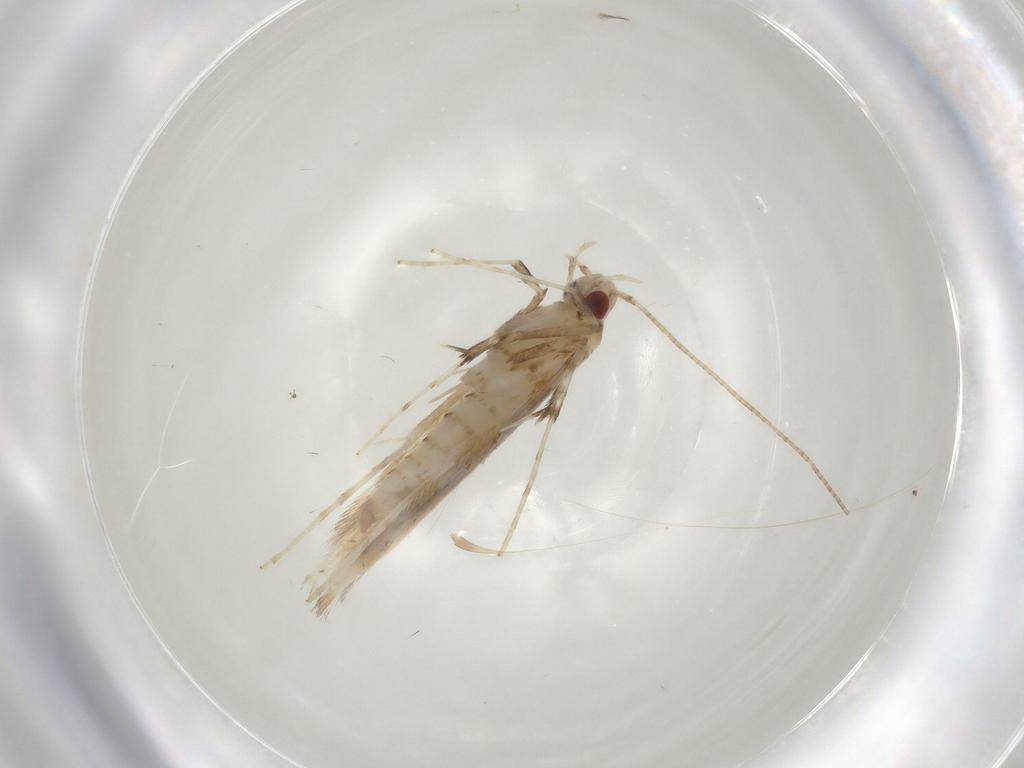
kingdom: Animalia
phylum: Arthropoda
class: Insecta
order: Lepidoptera
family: Gracillariidae
